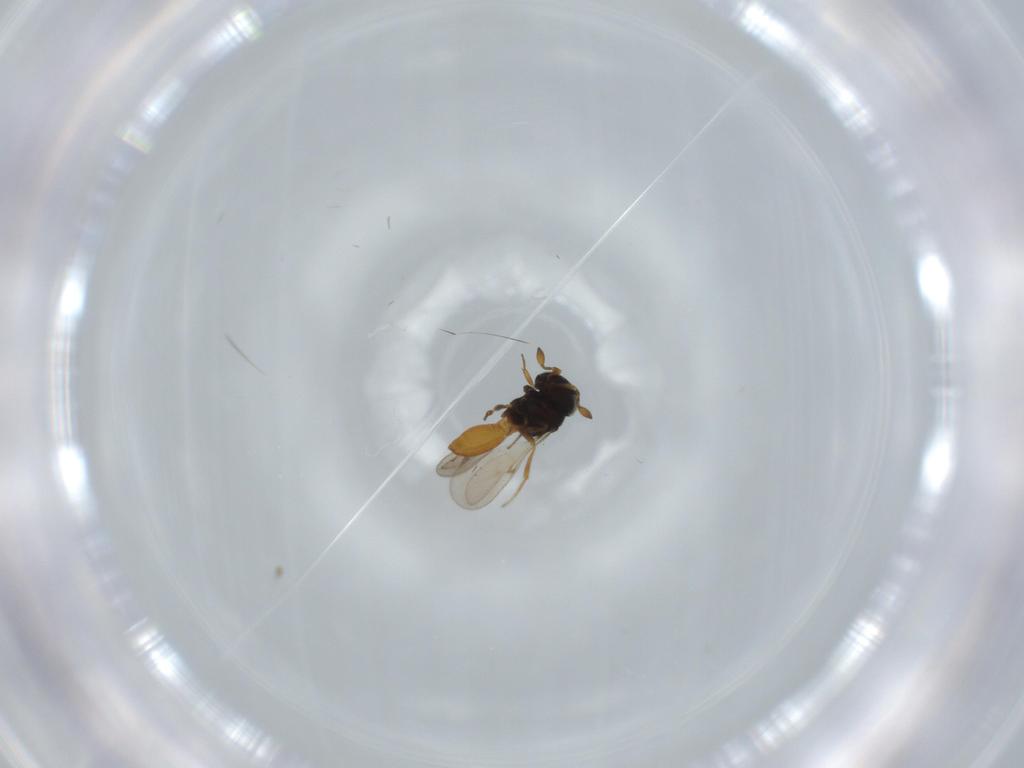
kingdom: Animalia
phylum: Arthropoda
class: Insecta
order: Hymenoptera
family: Scelionidae
